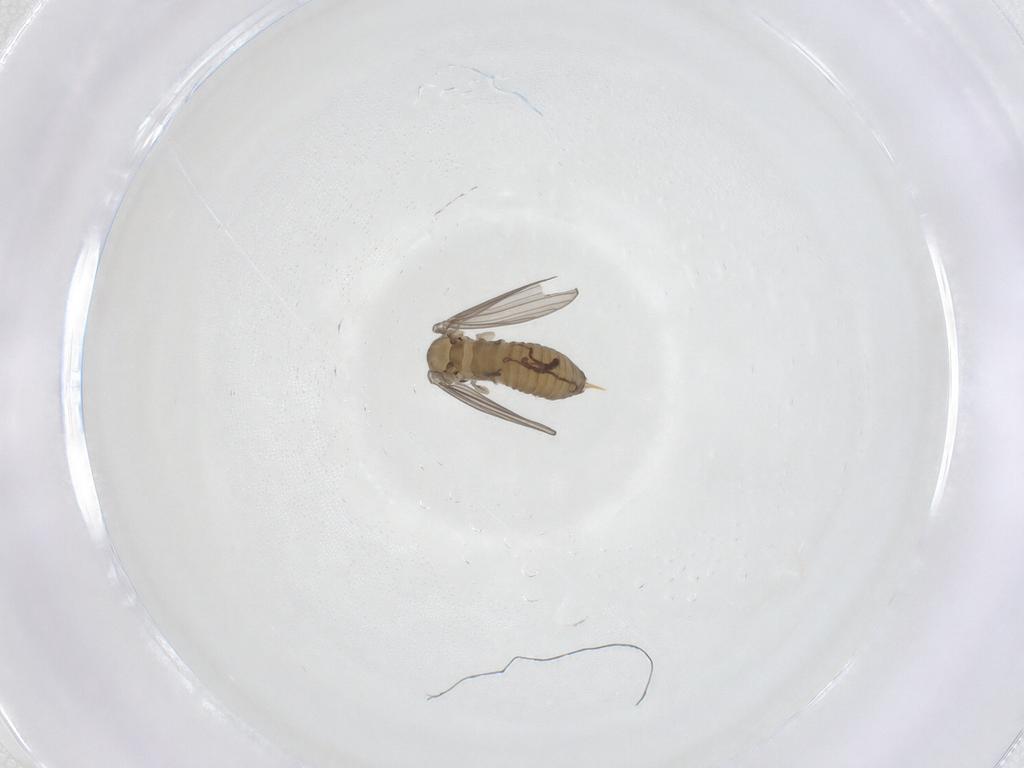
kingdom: Animalia
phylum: Arthropoda
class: Insecta
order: Diptera
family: Psychodidae
